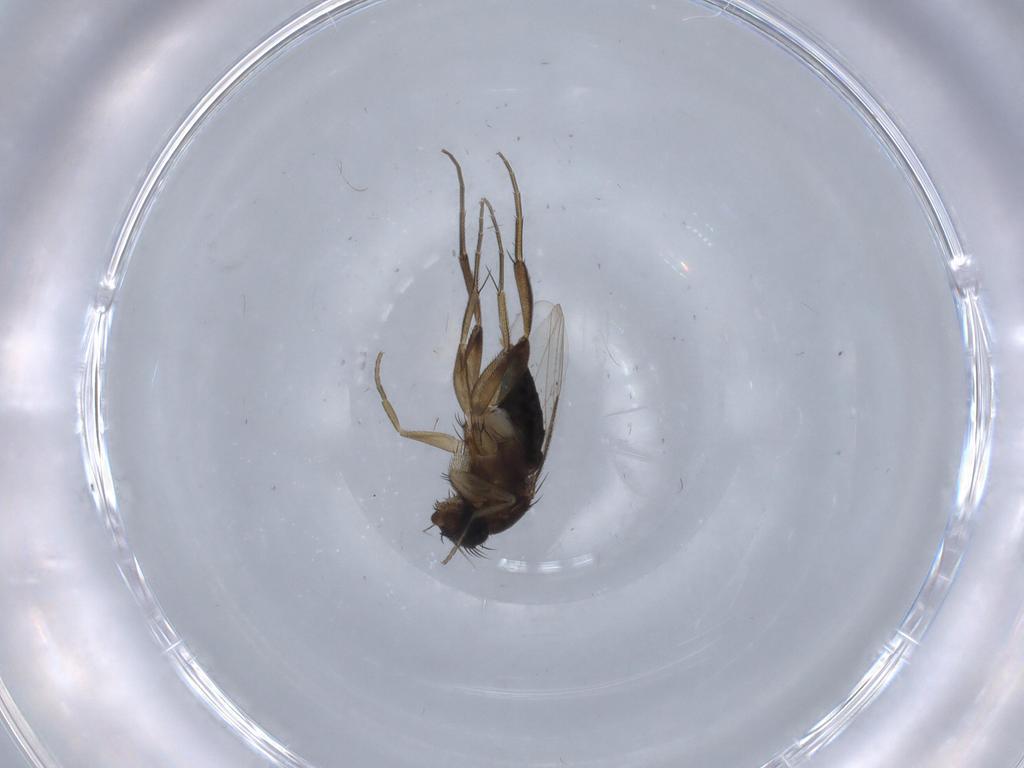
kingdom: Animalia
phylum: Arthropoda
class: Insecta
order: Diptera
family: Phoridae
